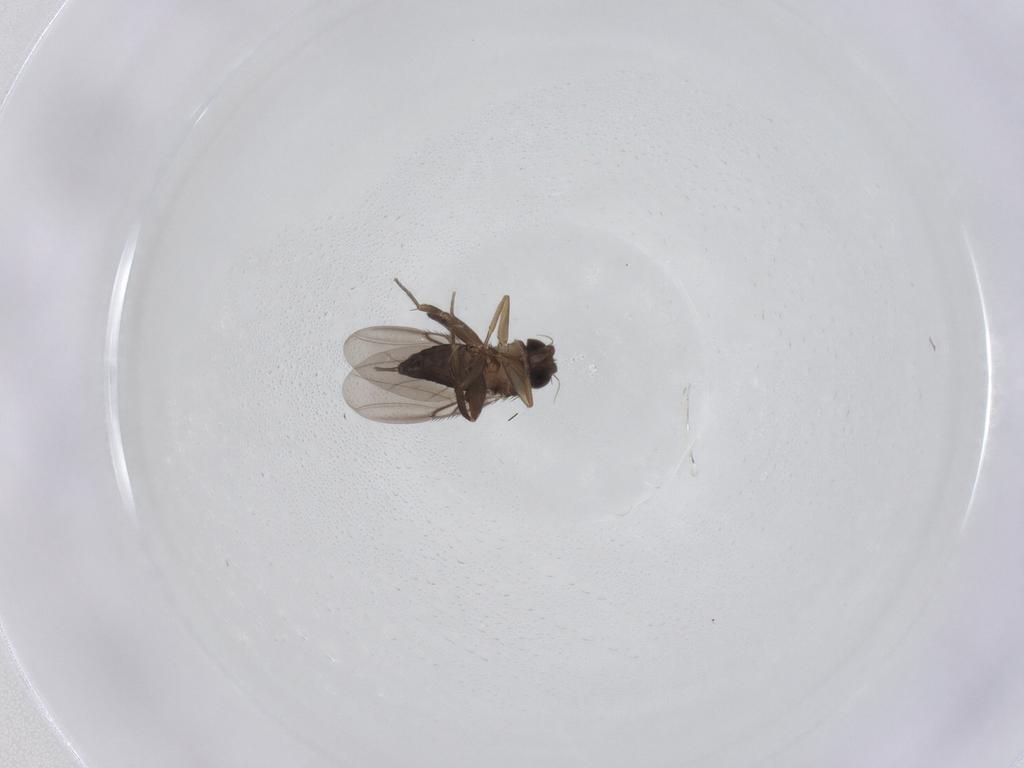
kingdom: Animalia
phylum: Arthropoda
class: Insecta
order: Diptera
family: Phoridae
